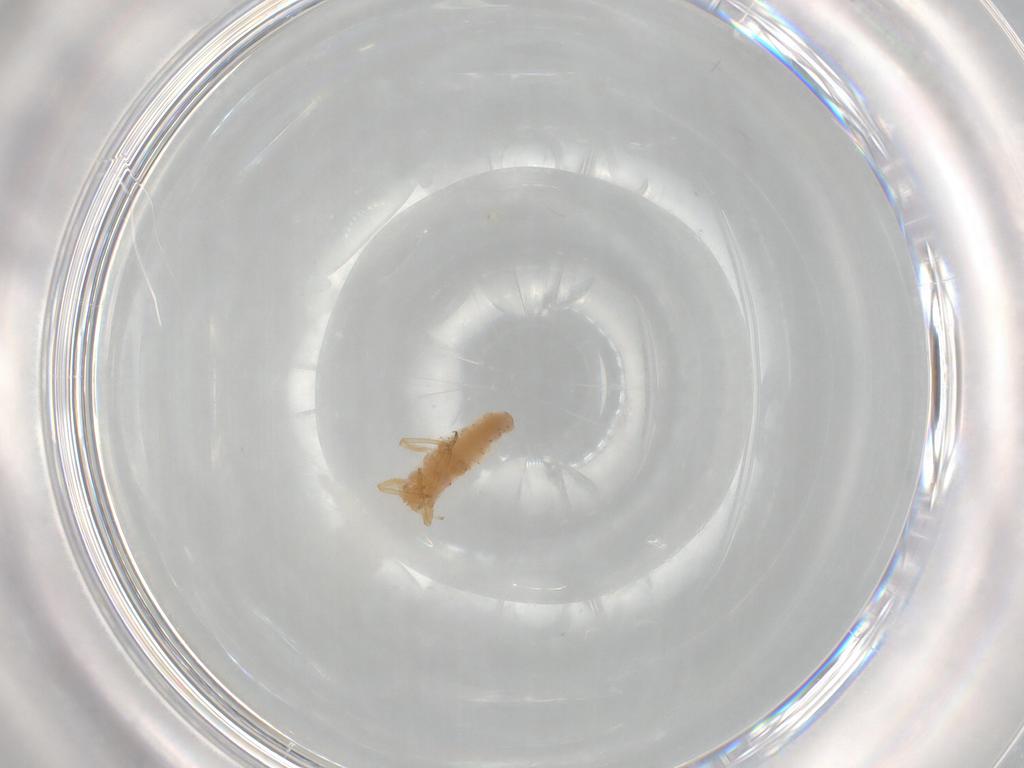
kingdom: Animalia
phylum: Arthropoda
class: Insecta
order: Hemiptera
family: Aphididae
